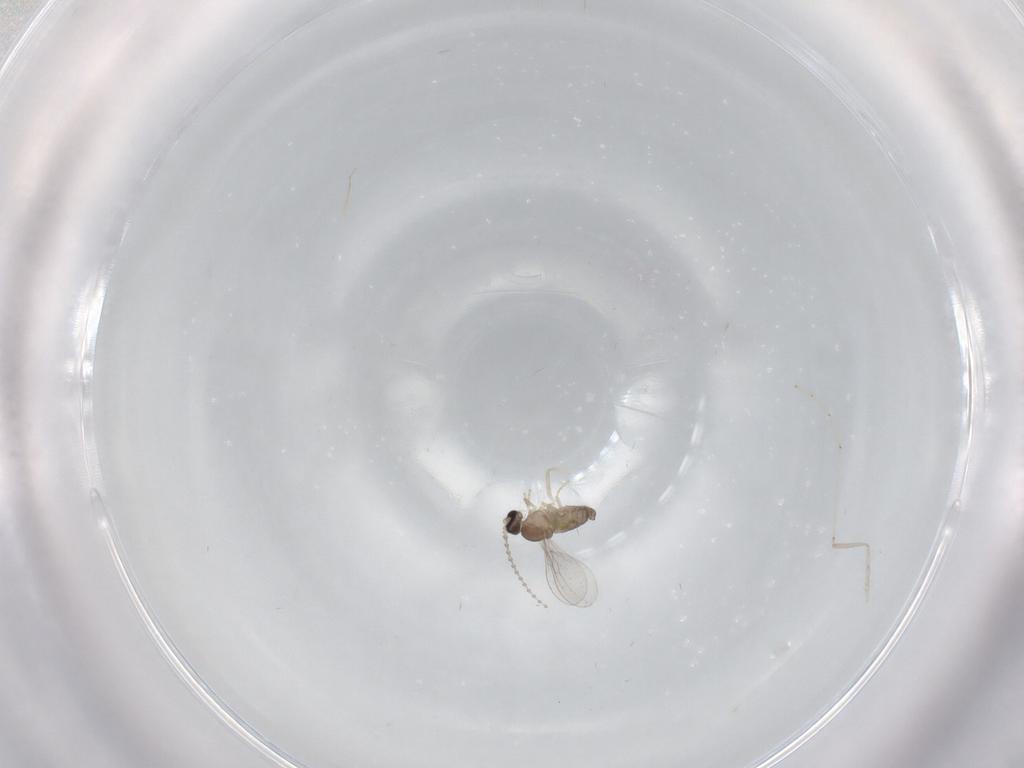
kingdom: Animalia
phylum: Arthropoda
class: Insecta
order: Diptera
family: Cecidomyiidae
